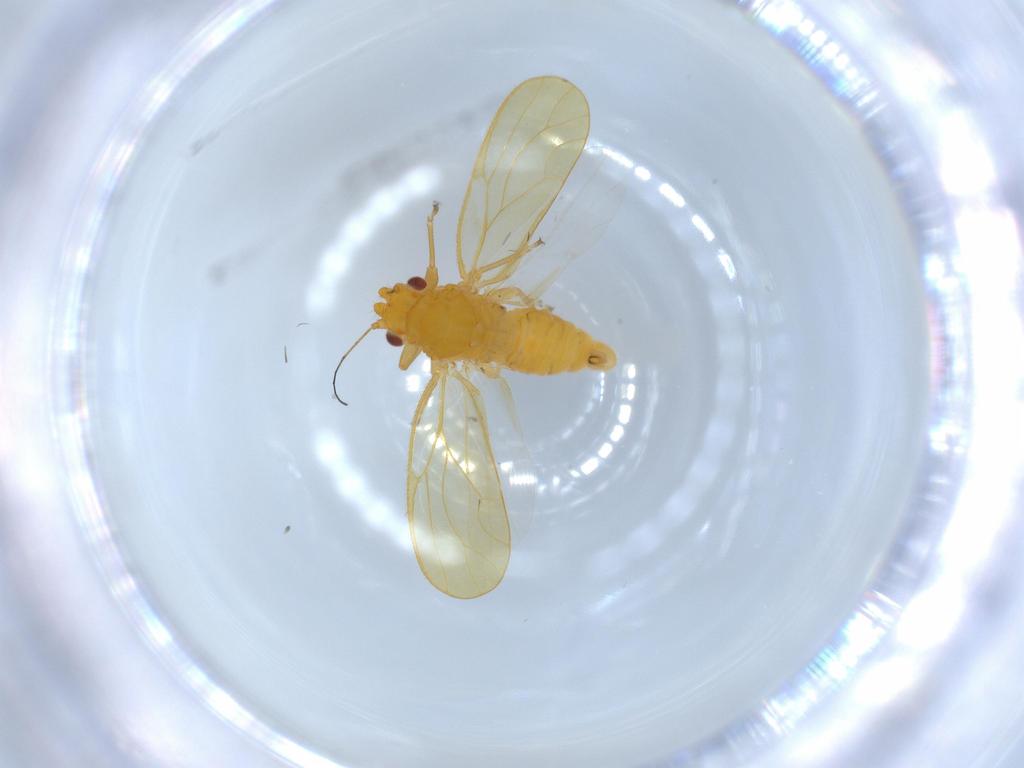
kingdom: Animalia
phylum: Arthropoda
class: Insecta
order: Hemiptera
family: Psyllidae
